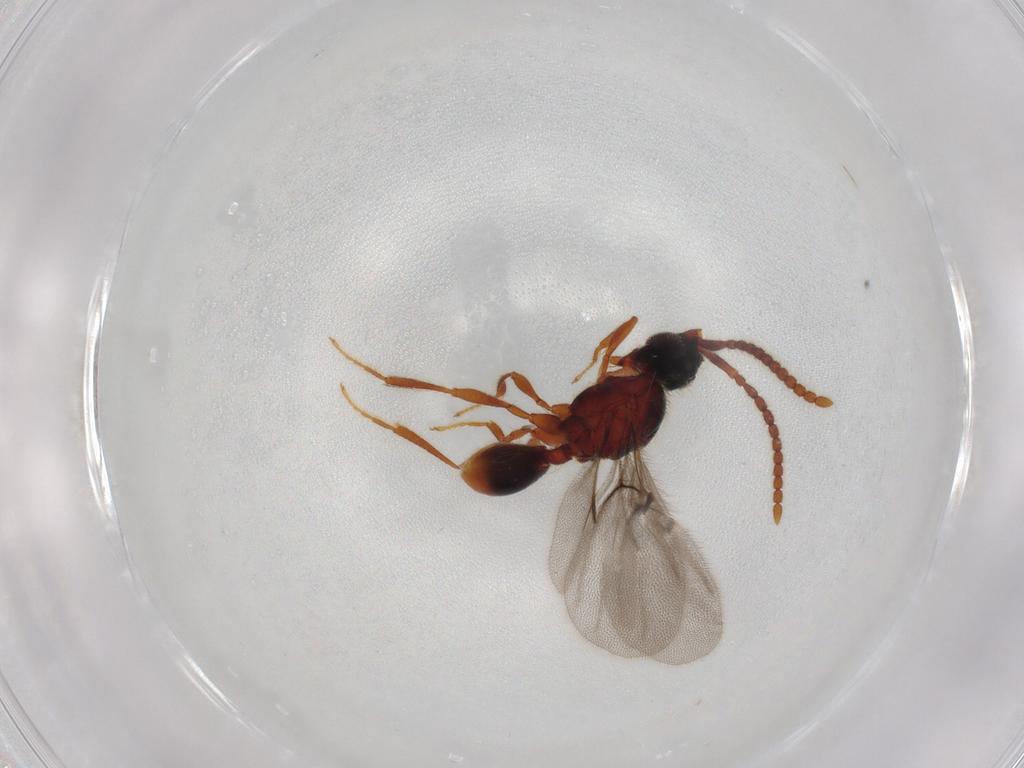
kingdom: Animalia
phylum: Arthropoda
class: Insecta
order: Hymenoptera
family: Diapriidae
